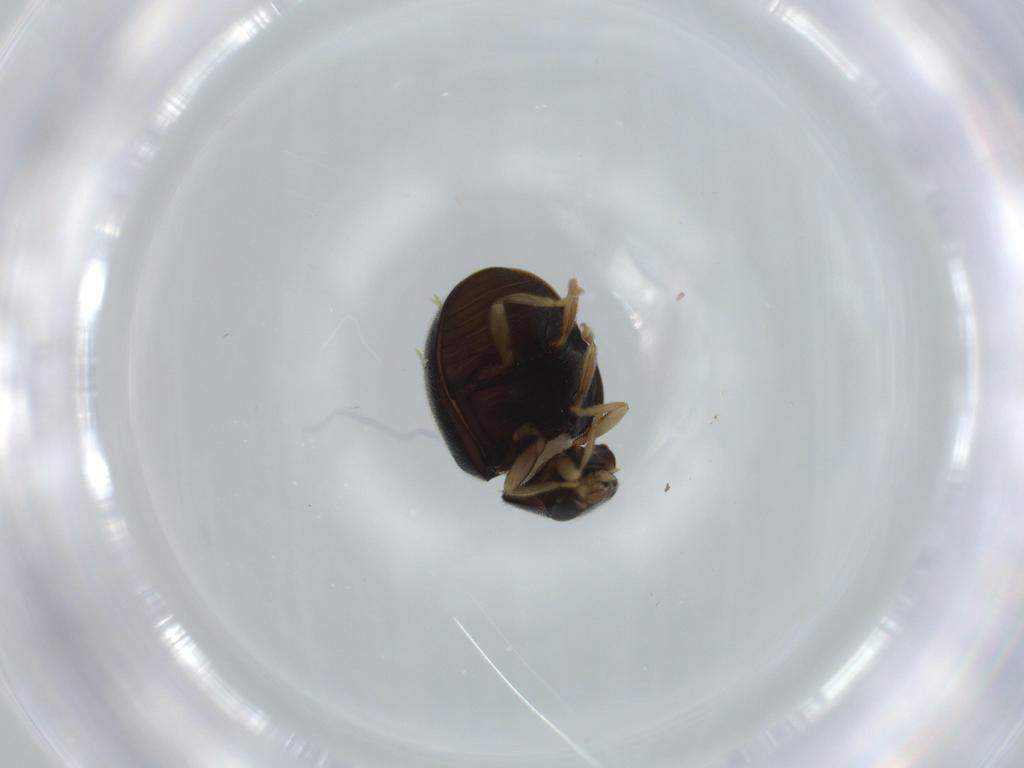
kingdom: Animalia
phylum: Arthropoda
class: Insecta
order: Coleoptera
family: Coccinellidae
